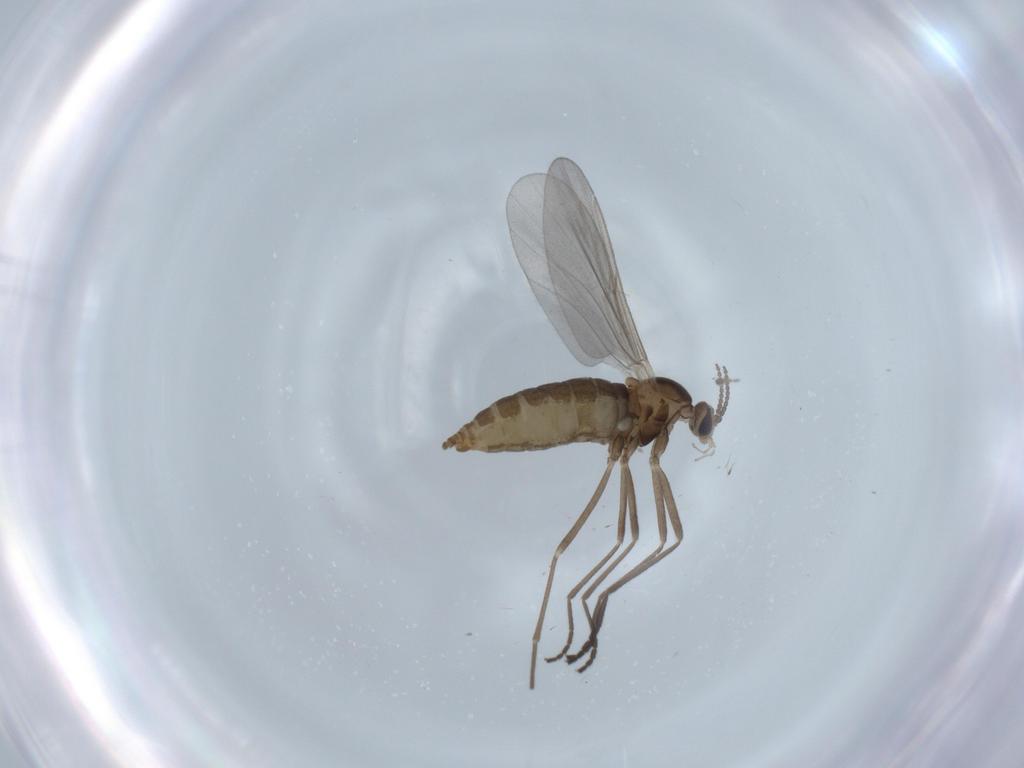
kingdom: Animalia
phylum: Arthropoda
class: Insecta
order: Diptera
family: Cecidomyiidae
